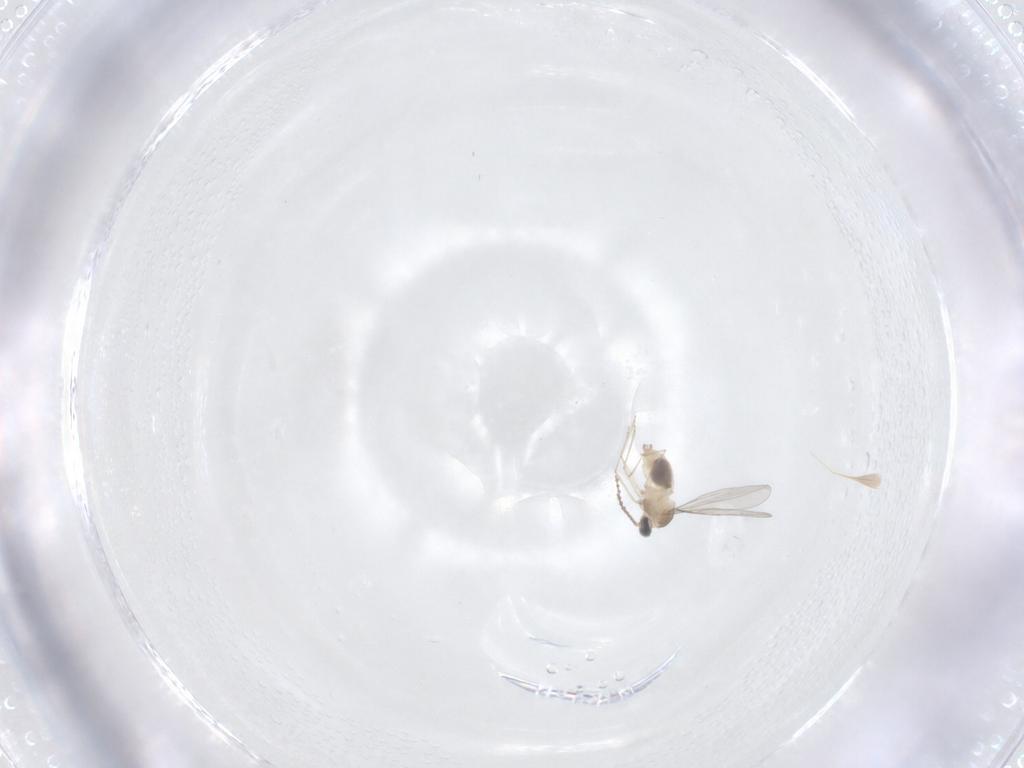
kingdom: Animalia
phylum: Arthropoda
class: Insecta
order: Diptera
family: Cecidomyiidae
